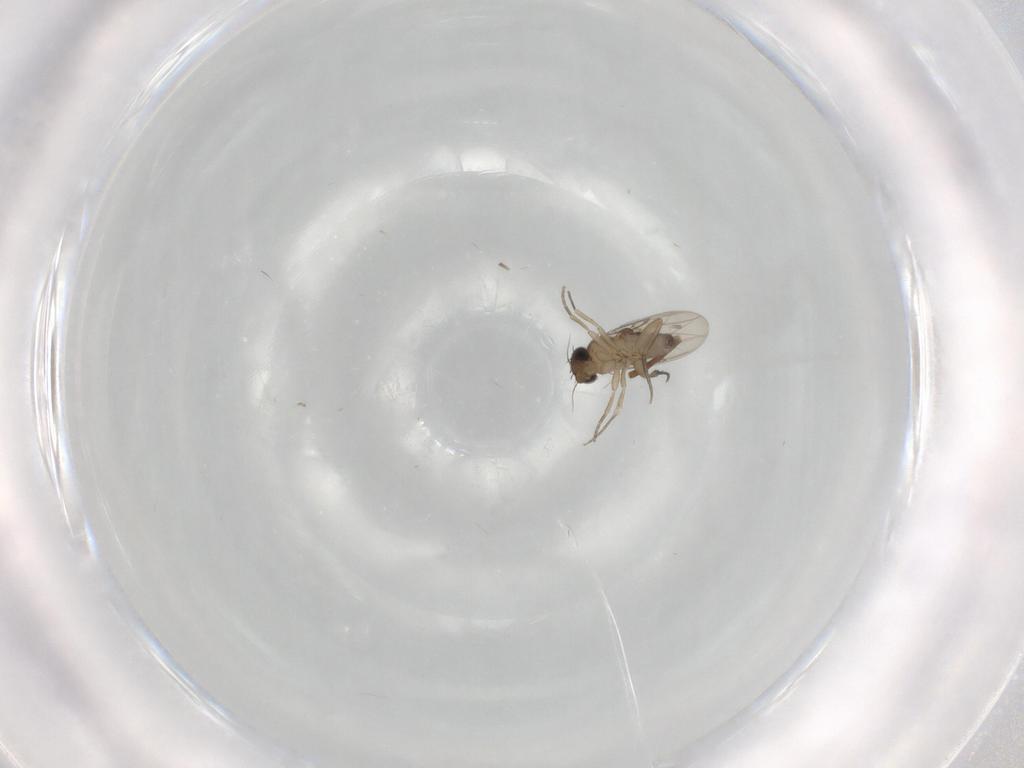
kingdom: Animalia
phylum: Arthropoda
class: Insecta
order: Diptera
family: Phoridae
